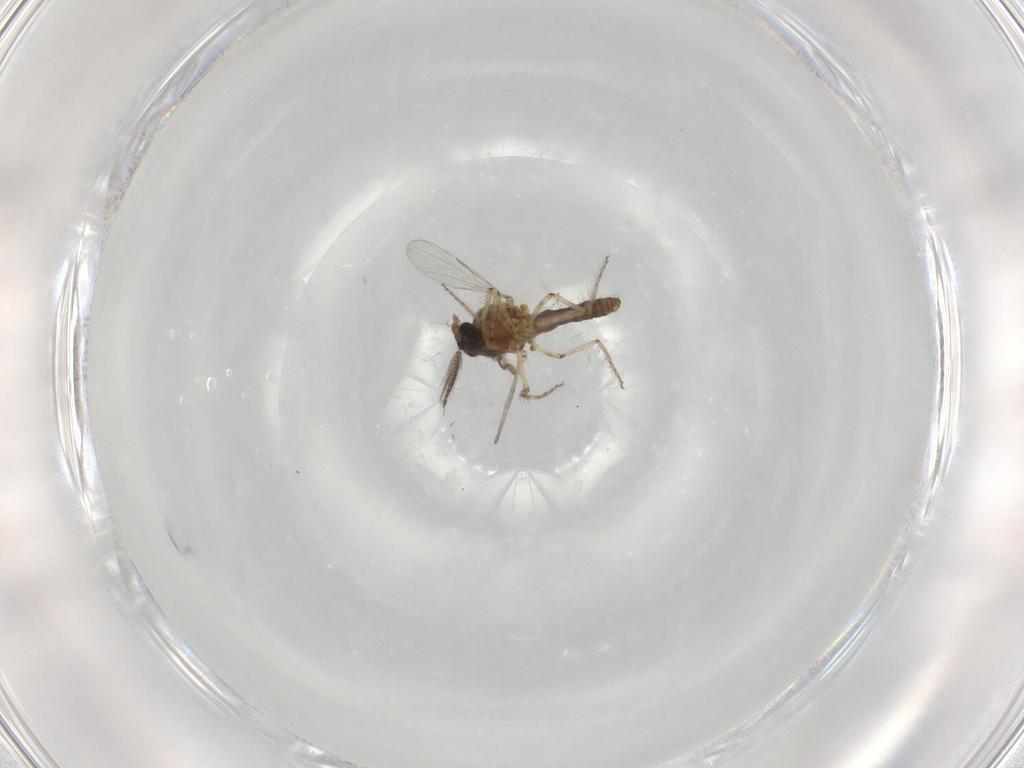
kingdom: Animalia
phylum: Arthropoda
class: Insecta
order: Diptera
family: Ceratopogonidae
